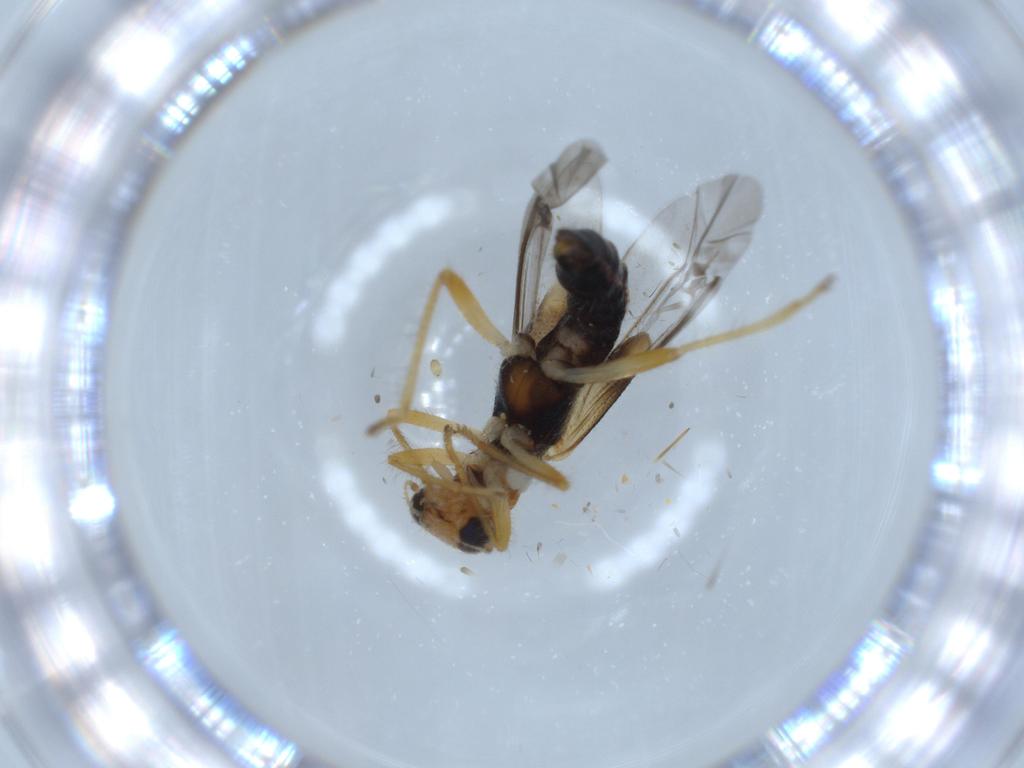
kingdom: Animalia
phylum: Arthropoda
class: Insecta
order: Coleoptera
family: Cleridae
